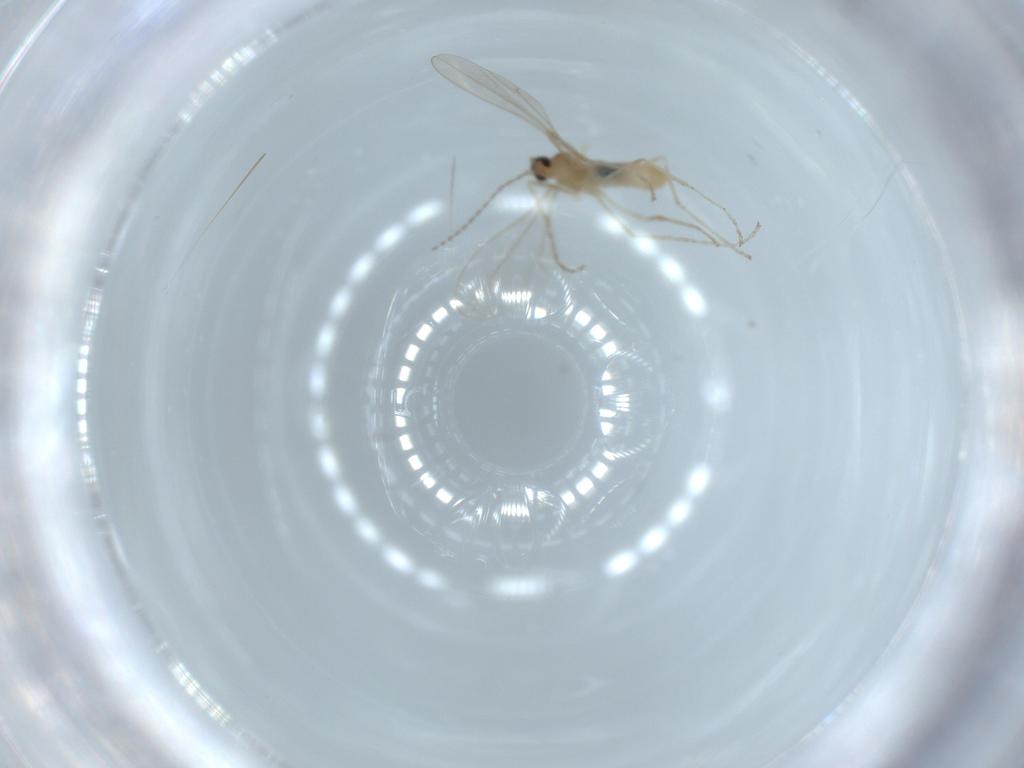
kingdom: Animalia
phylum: Arthropoda
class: Insecta
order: Diptera
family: Cecidomyiidae
